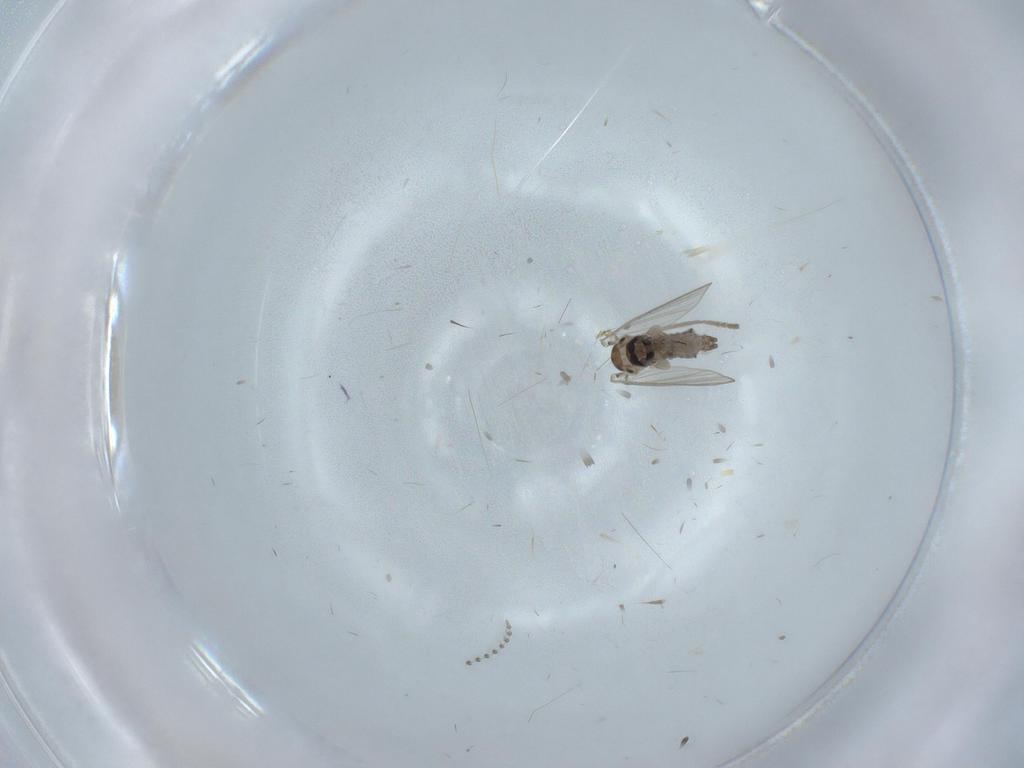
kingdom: Animalia
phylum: Arthropoda
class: Insecta
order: Diptera
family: Psychodidae
